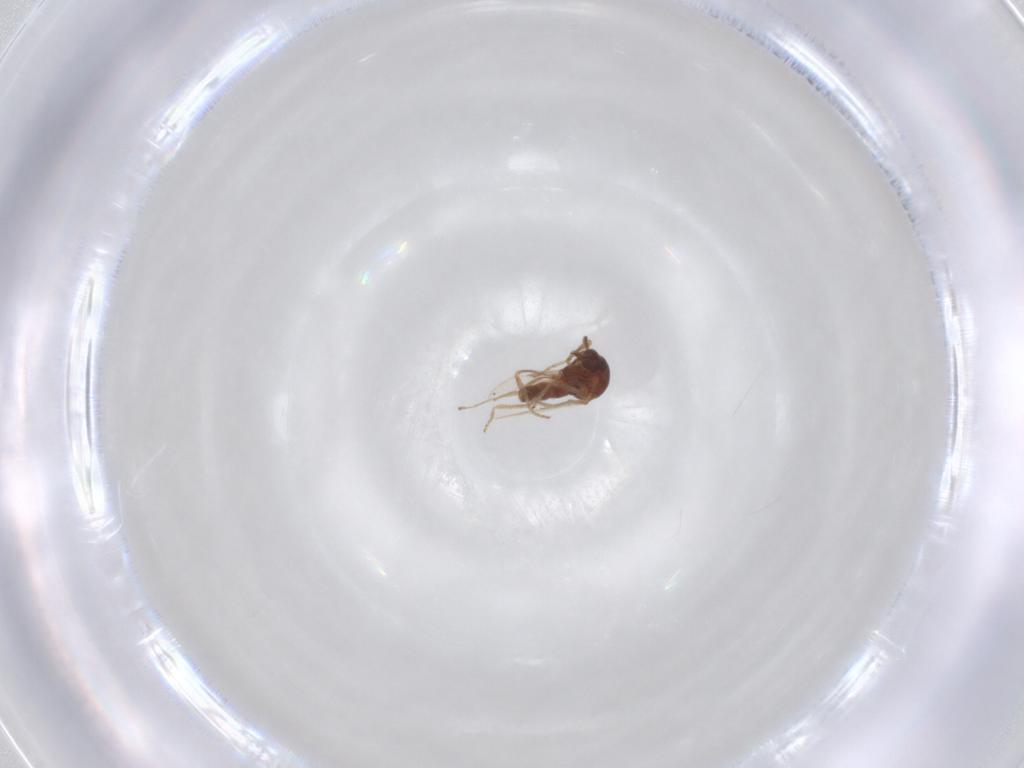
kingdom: Animalia
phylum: Arthropoda
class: Insecta
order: Diptera
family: Ceratopogonidae
